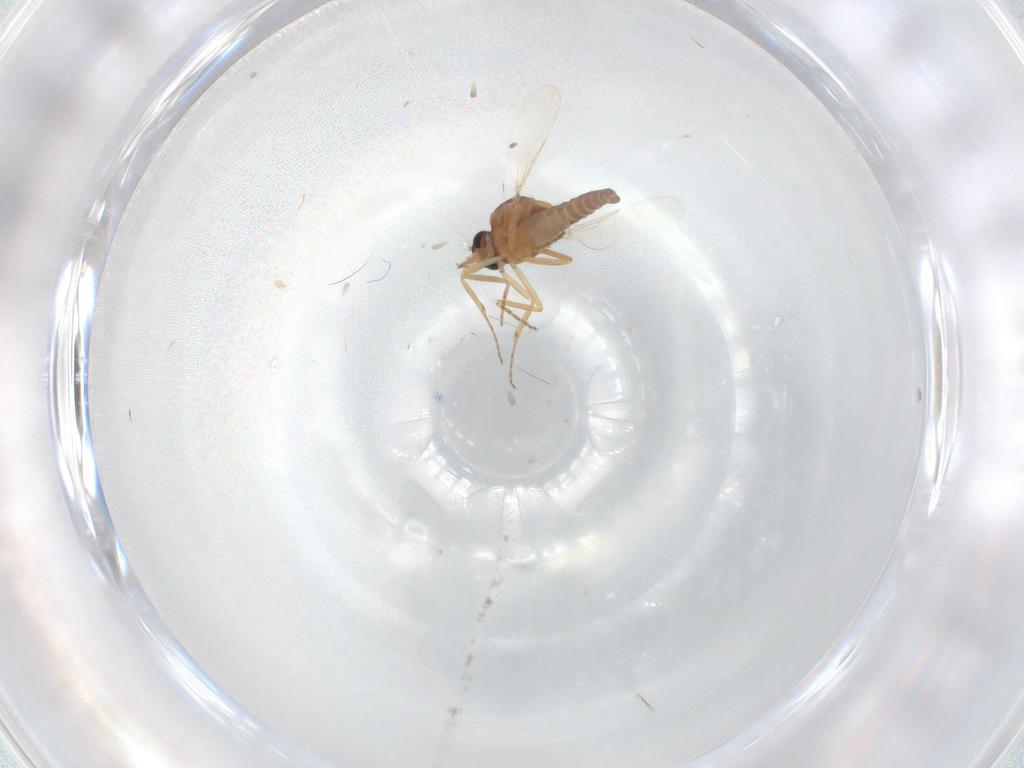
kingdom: Animalia
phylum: Arthropoda
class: Insecta
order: Diptera
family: Ceratopogonidae
